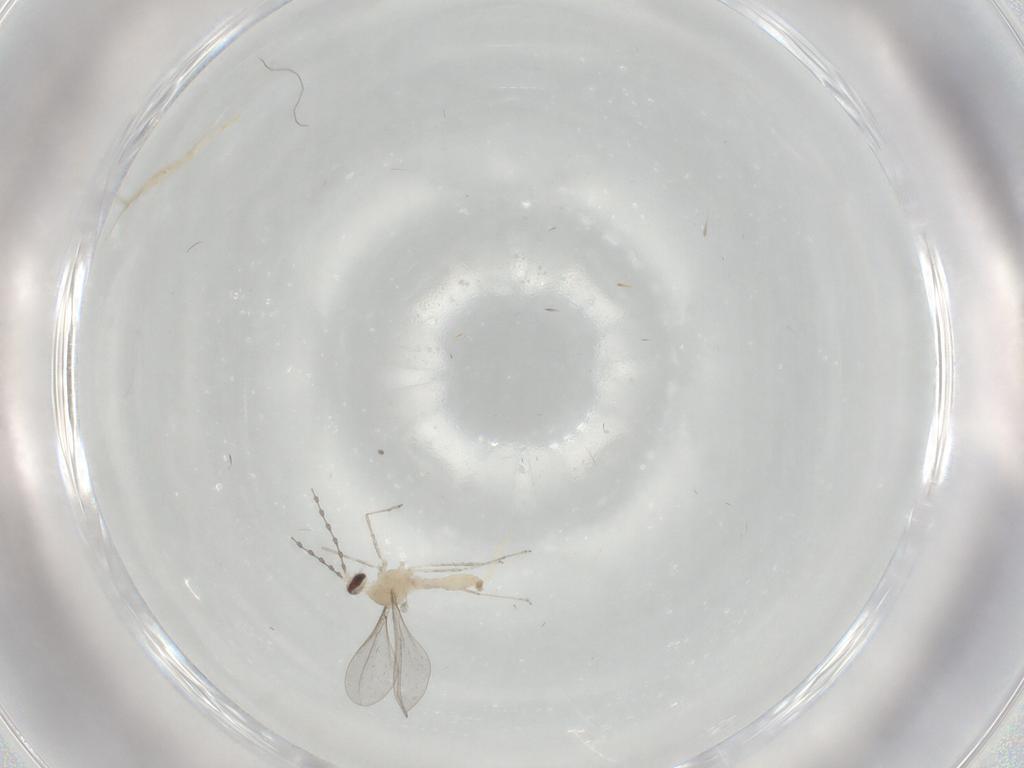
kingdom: Animalia
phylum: Arthropoda
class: Insecta
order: Diptera
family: Cecidomyiidae
